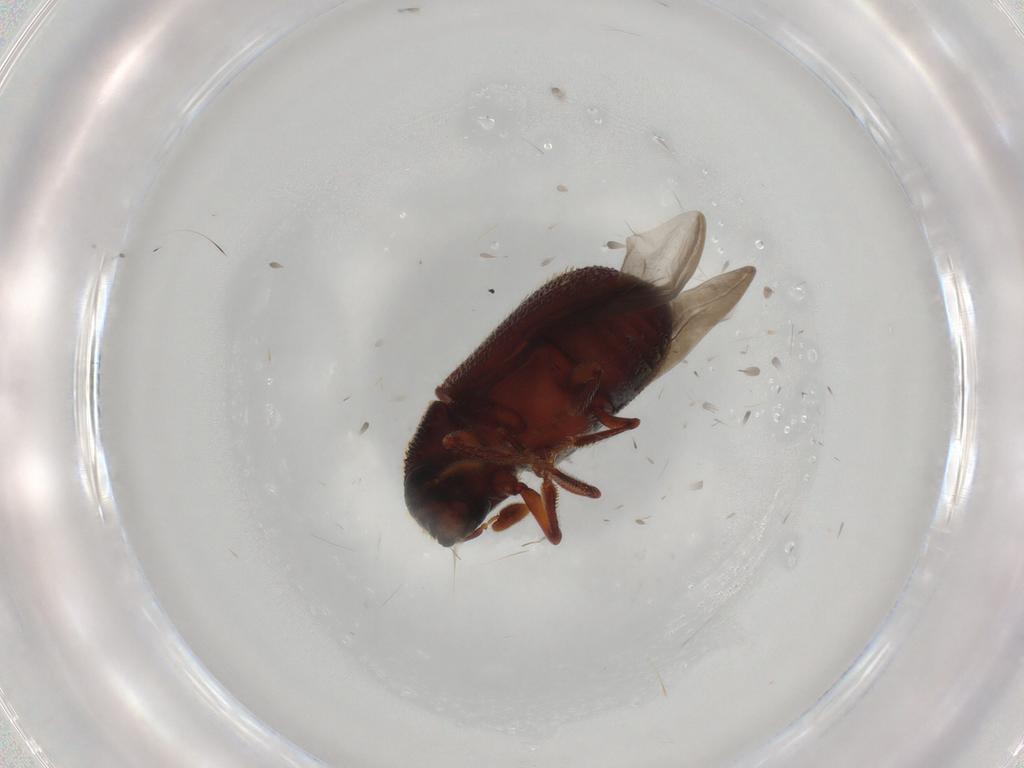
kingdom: Animalia
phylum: Arthropoda
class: Insecta
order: Coleoptera
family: Curculionidae
